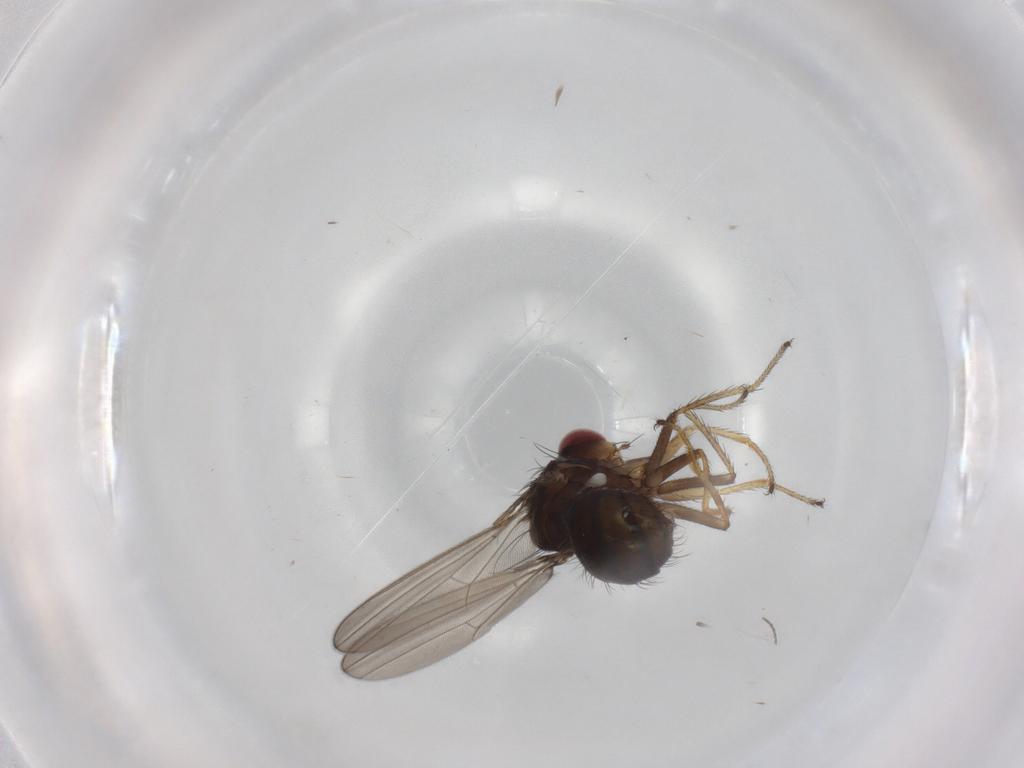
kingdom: Animalia
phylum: Arthropoda
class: Insecta
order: Diptera
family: Ephydridae
